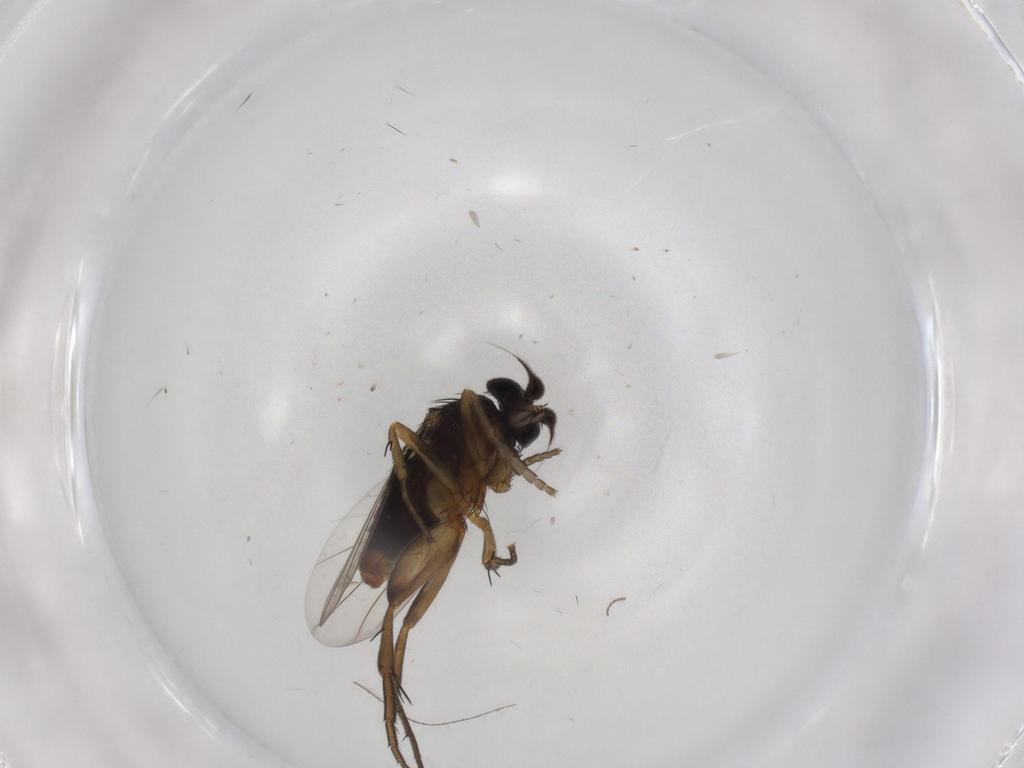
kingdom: Animalia
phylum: Arthropoda
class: Insecta
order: Diptera
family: Phoridae
